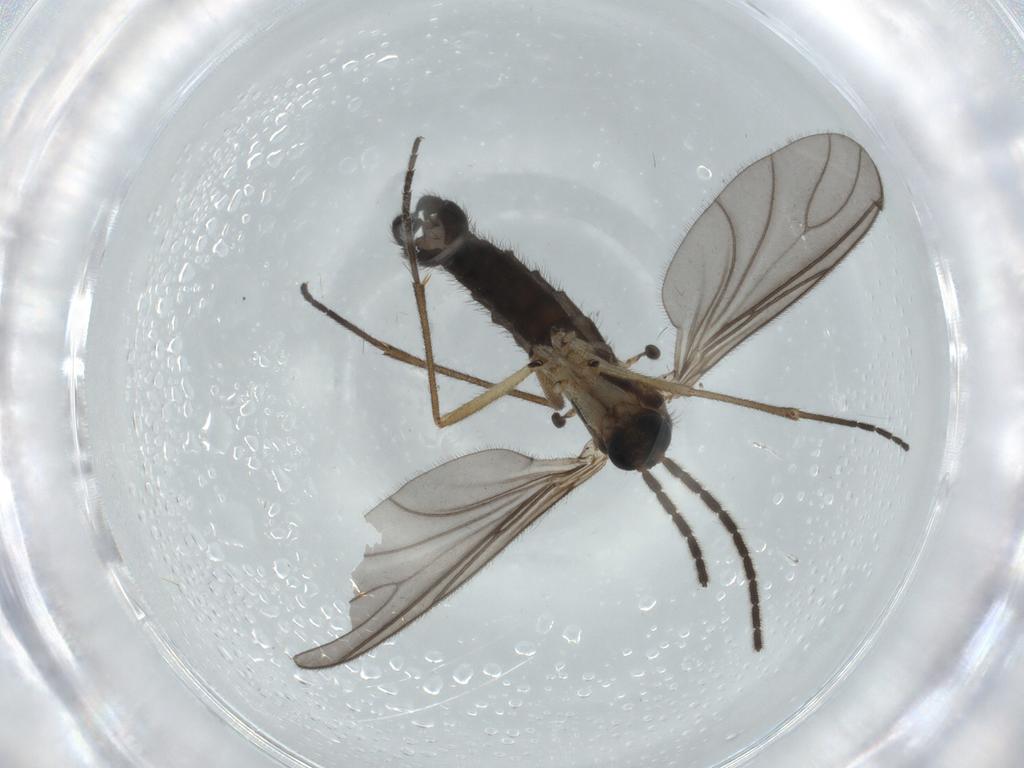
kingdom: Animalia
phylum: Arthropoda
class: Insecta
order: Diptera
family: Sciaridae
